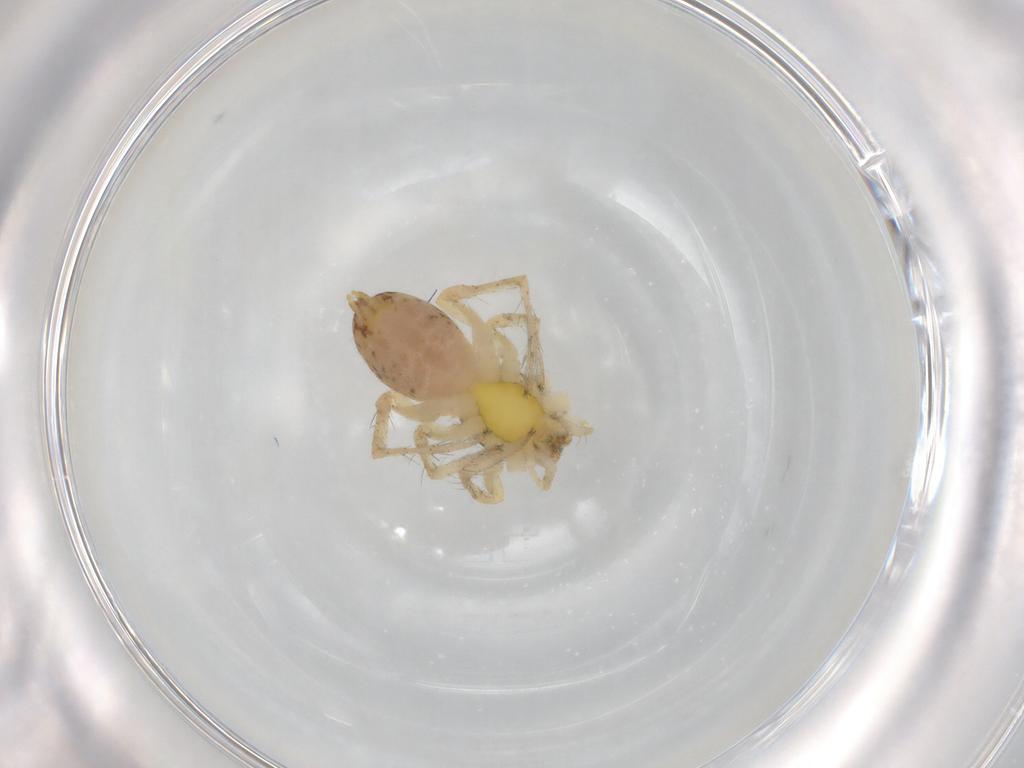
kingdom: Animalia
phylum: Arthropoda
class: Arachnida
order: Araneae
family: Anyphaenidae
